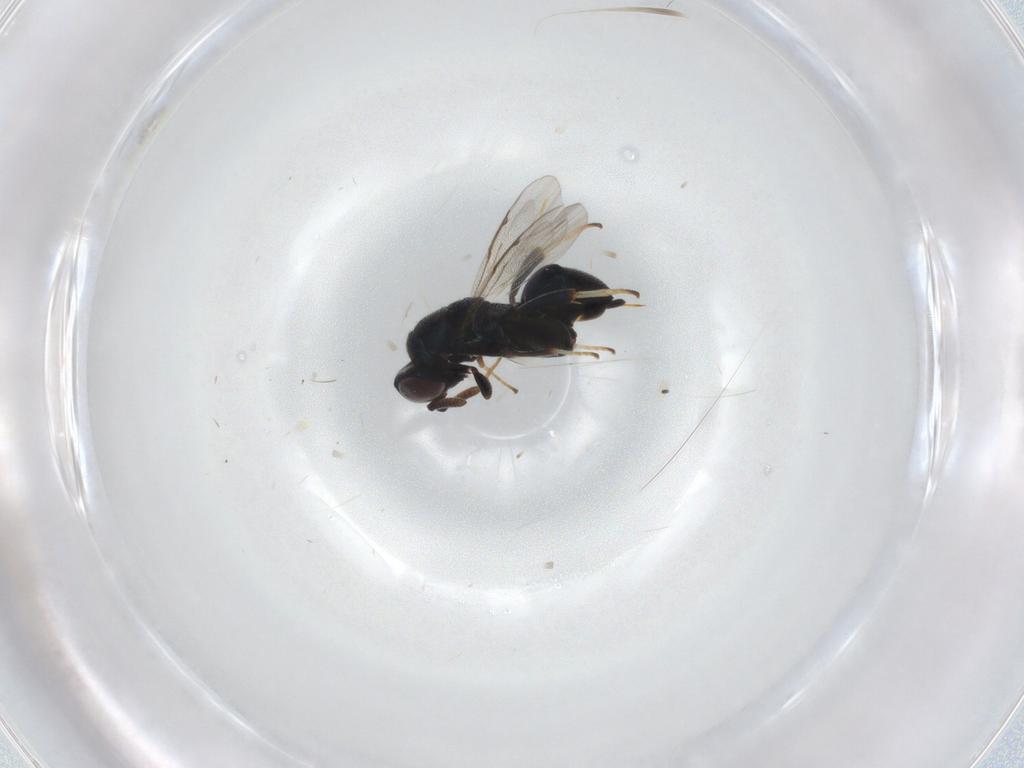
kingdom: Animalia
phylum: Arthropoda
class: Insecta
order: Hymenoptera
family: Torymidae
